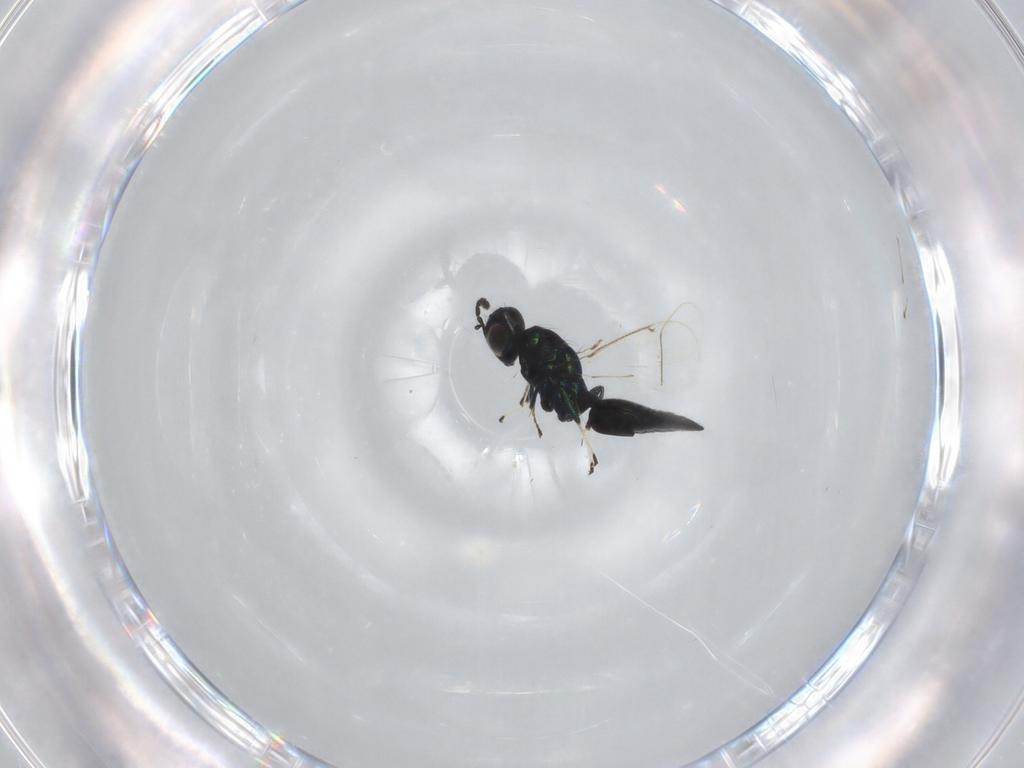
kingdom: Animalia
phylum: Arthropoda
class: Insecta
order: Hymenoptera
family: Eulophidae
